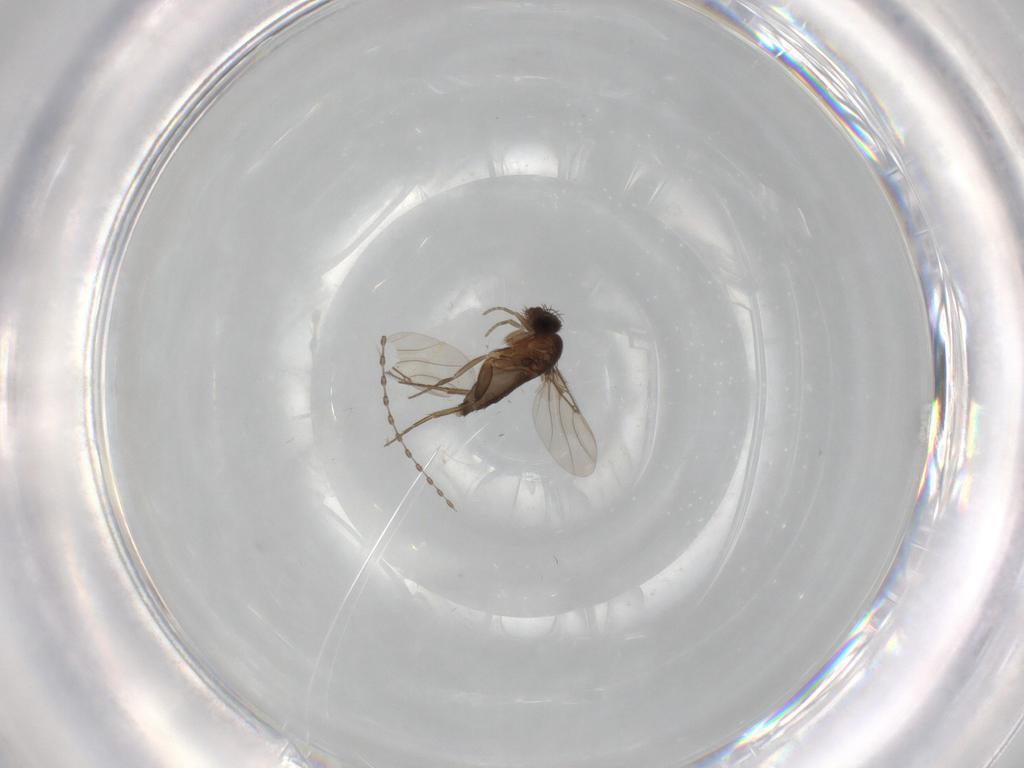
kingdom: Animalia
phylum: Arthropoda
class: Insecta
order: Diptera
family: Phoridae
